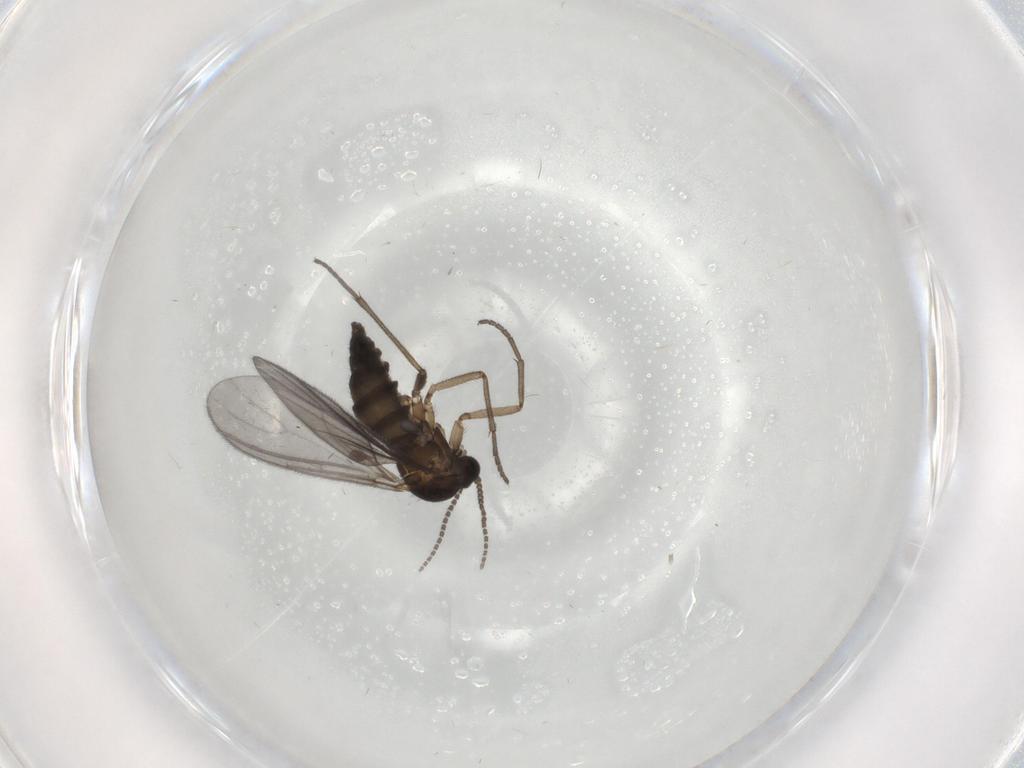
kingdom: Animalia
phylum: Arthropoda
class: Insecta
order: Diptera
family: Sciaridae
